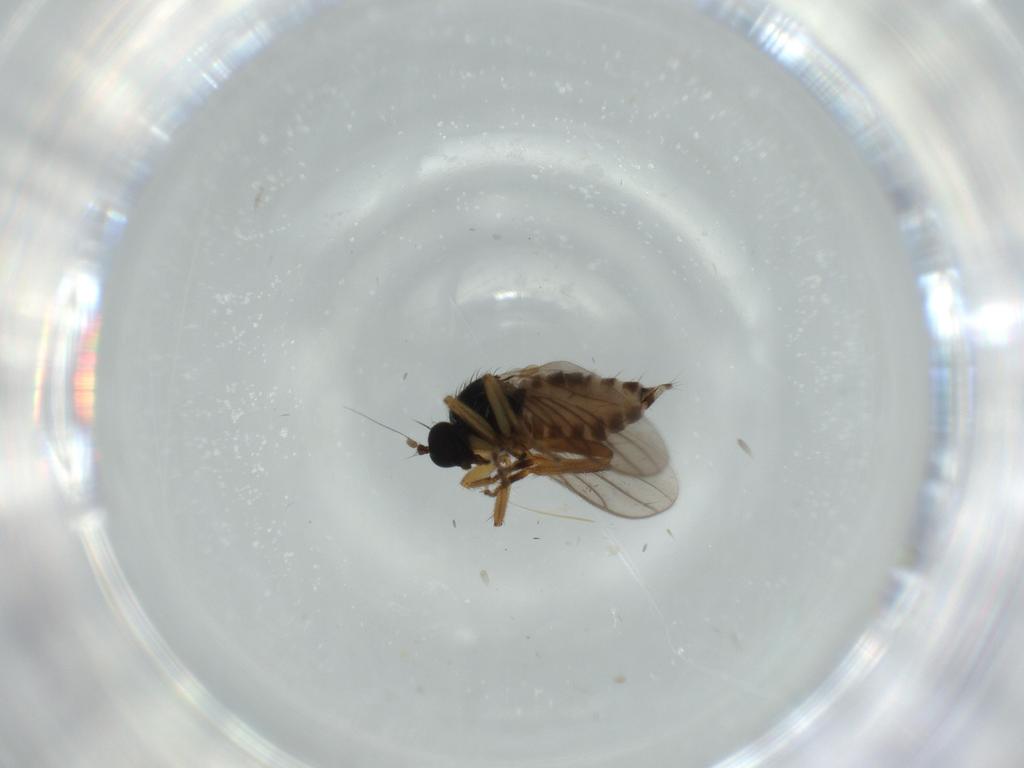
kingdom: Animalia
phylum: Arthropoda
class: Insecta
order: Diptera
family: Hybotidae
